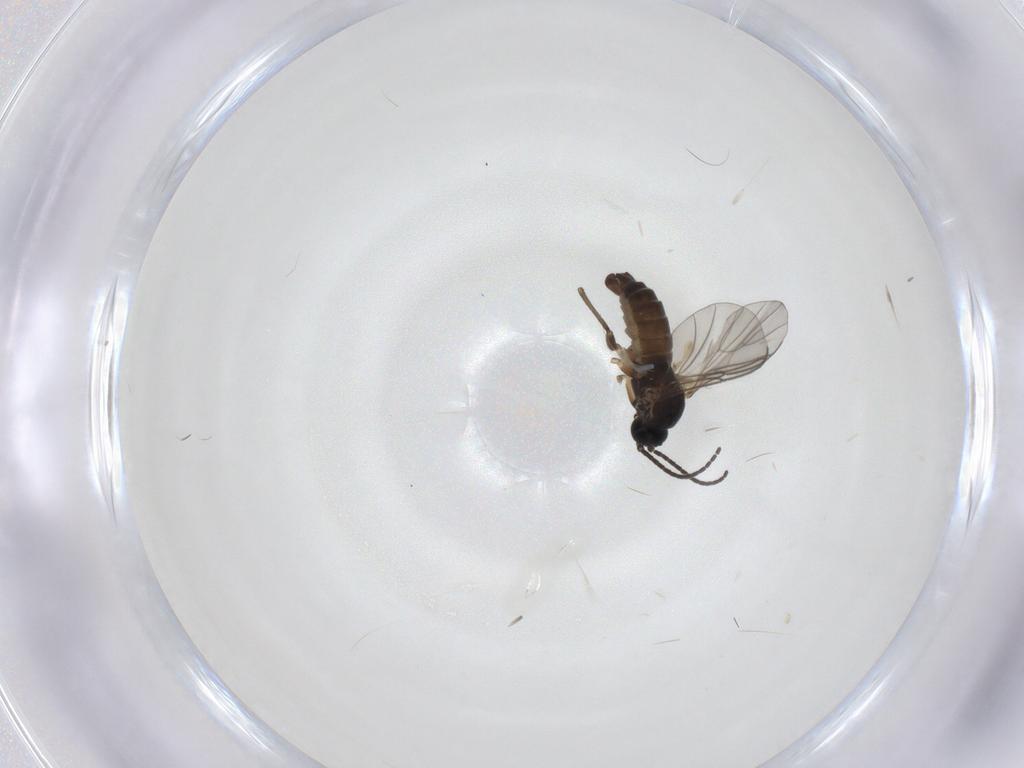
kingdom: Animalia
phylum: Arthropoda
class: Insecta
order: Diptera
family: Sciaridae
